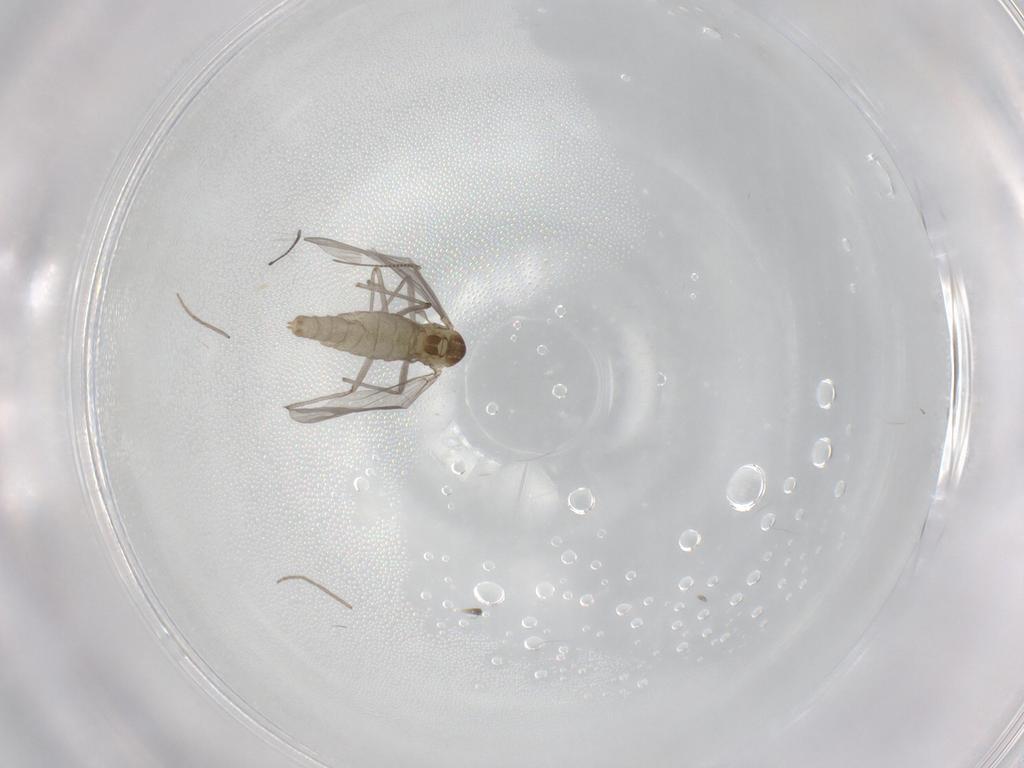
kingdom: Animalia
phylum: Arthropoda
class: Insecta
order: Diptera
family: Chironomidae
